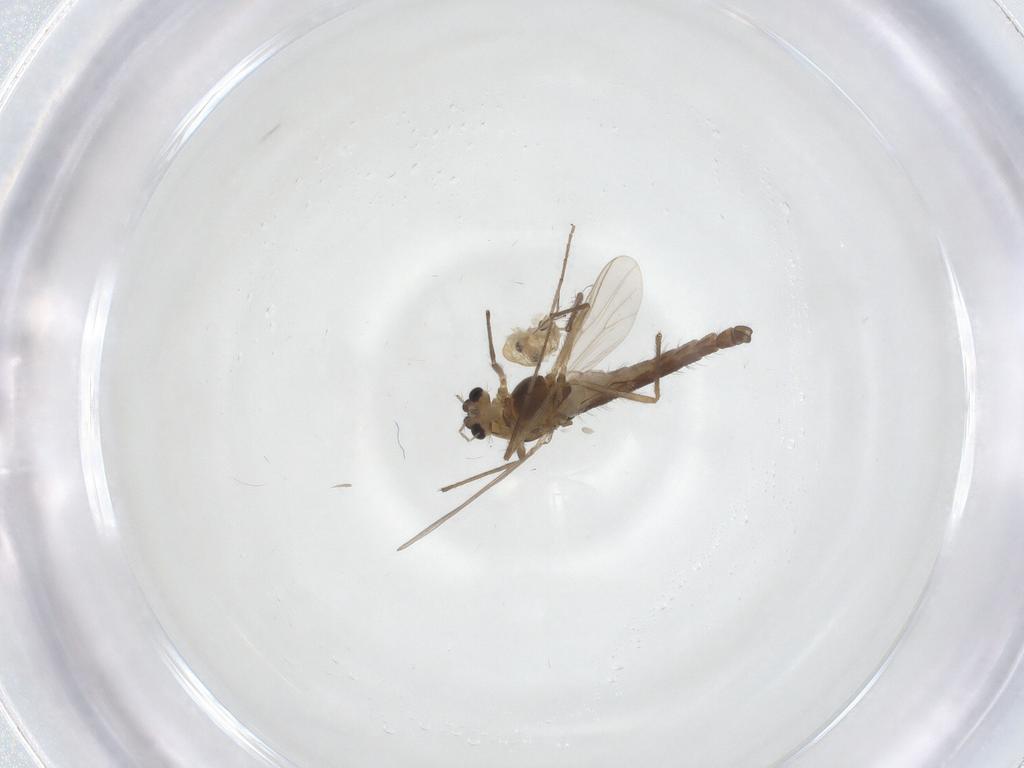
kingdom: Animalia
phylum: Arthropoda
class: Insecta
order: Diptera
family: Chironomidae
